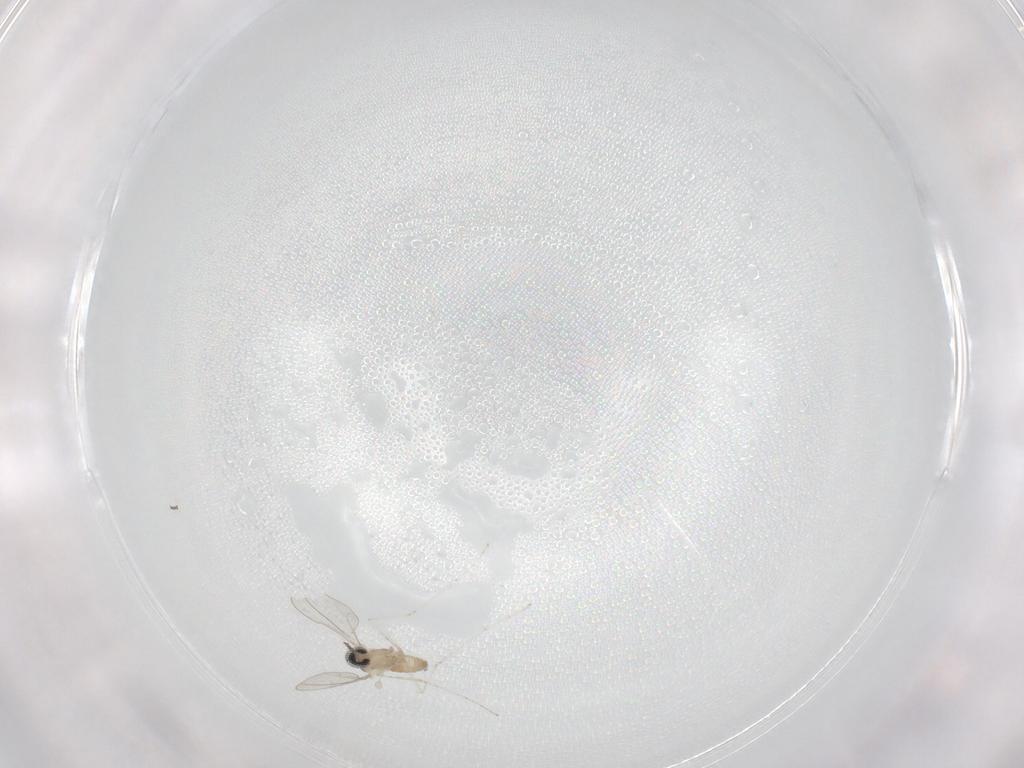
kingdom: Animalia
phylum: Arthropoda
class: Insecta
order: Diptera
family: Cecidomyiidae
